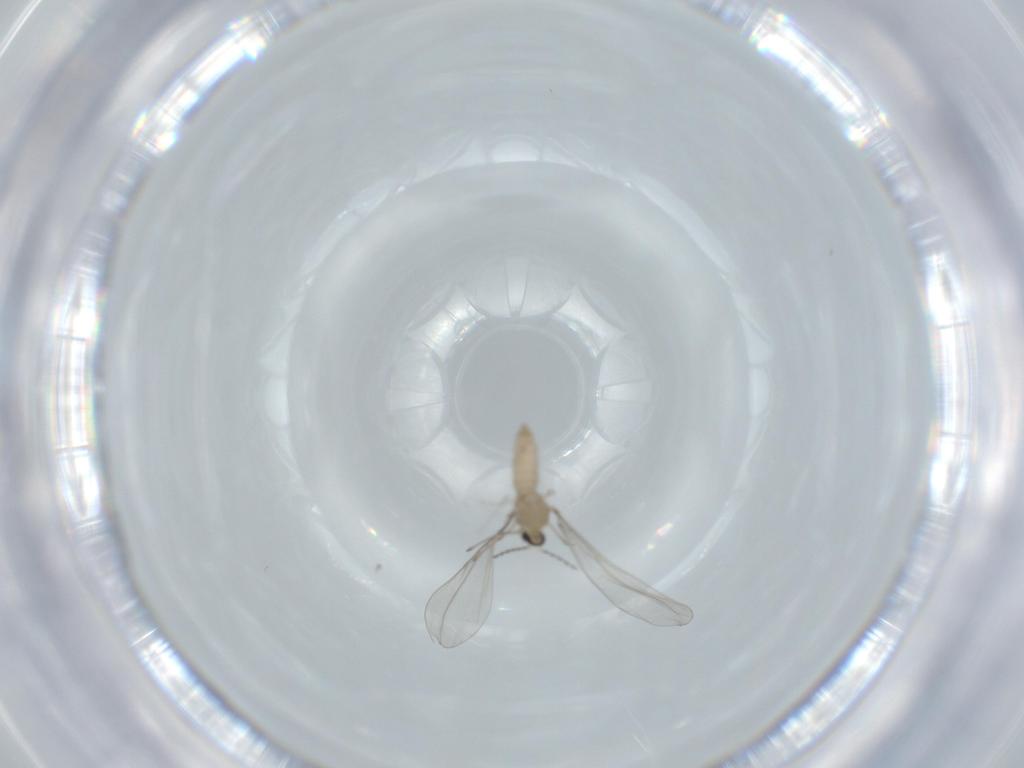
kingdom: Animalia
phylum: Arthropoda
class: Insecta
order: Diptera
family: Cecidomyiidae
